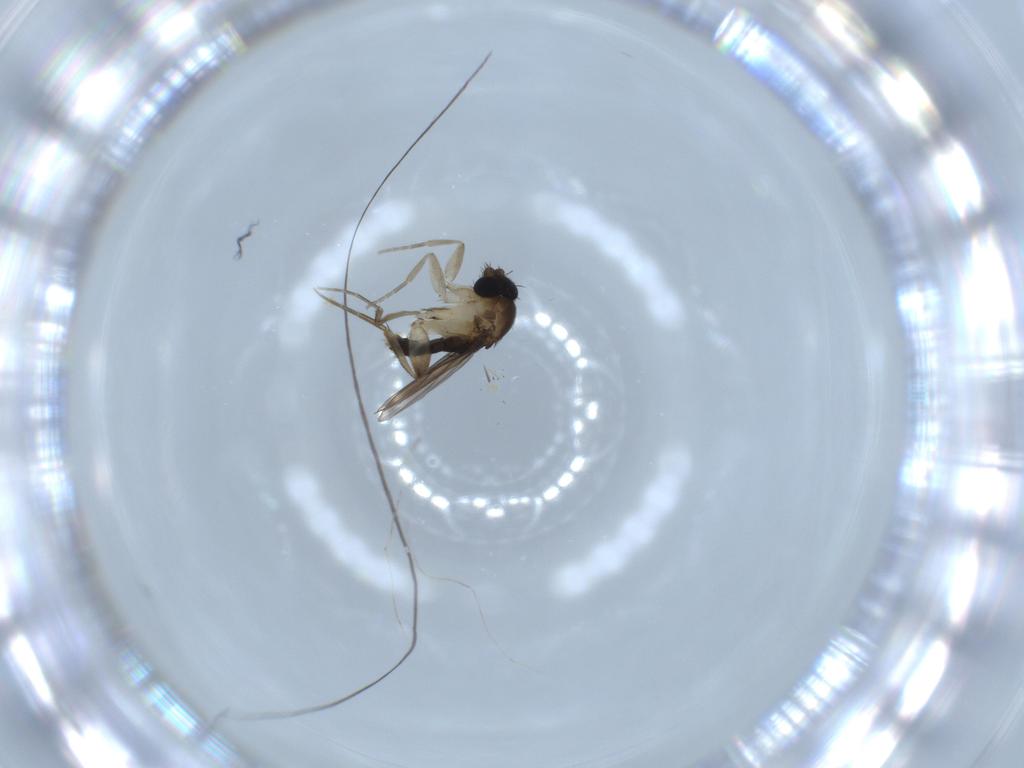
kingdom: Animalia
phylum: Arthropoda
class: Insecta
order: Diptera
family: Phoridae
